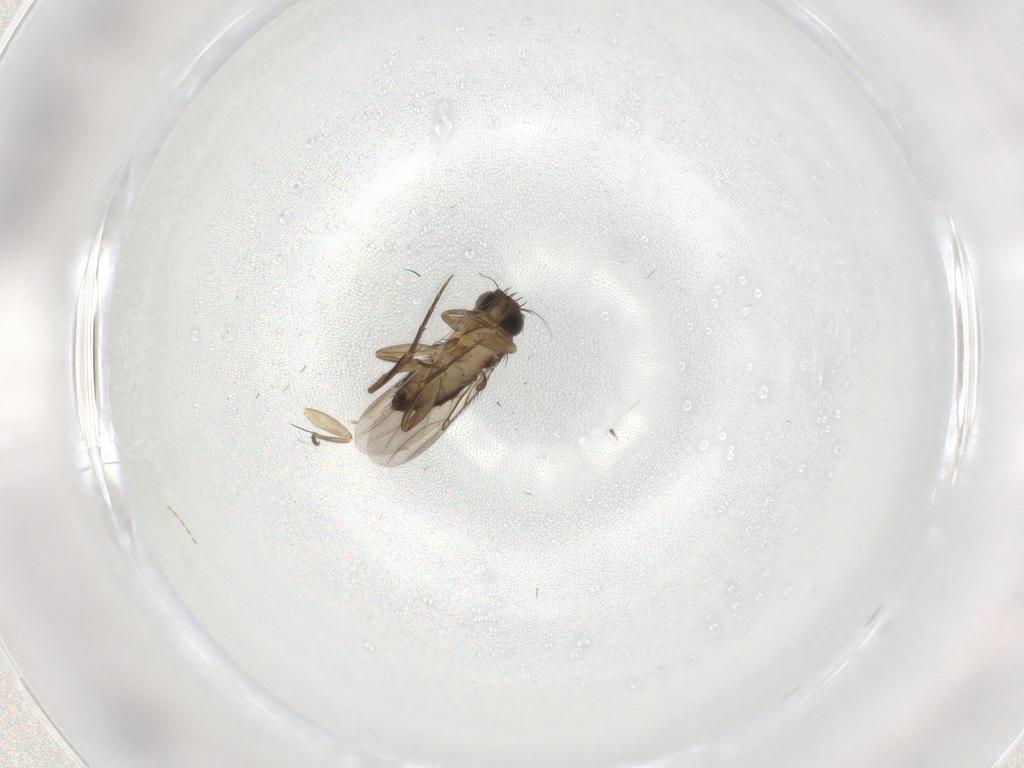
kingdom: Animalia
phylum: Arthropoda
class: Insecta
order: Diptera
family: Phoridae
